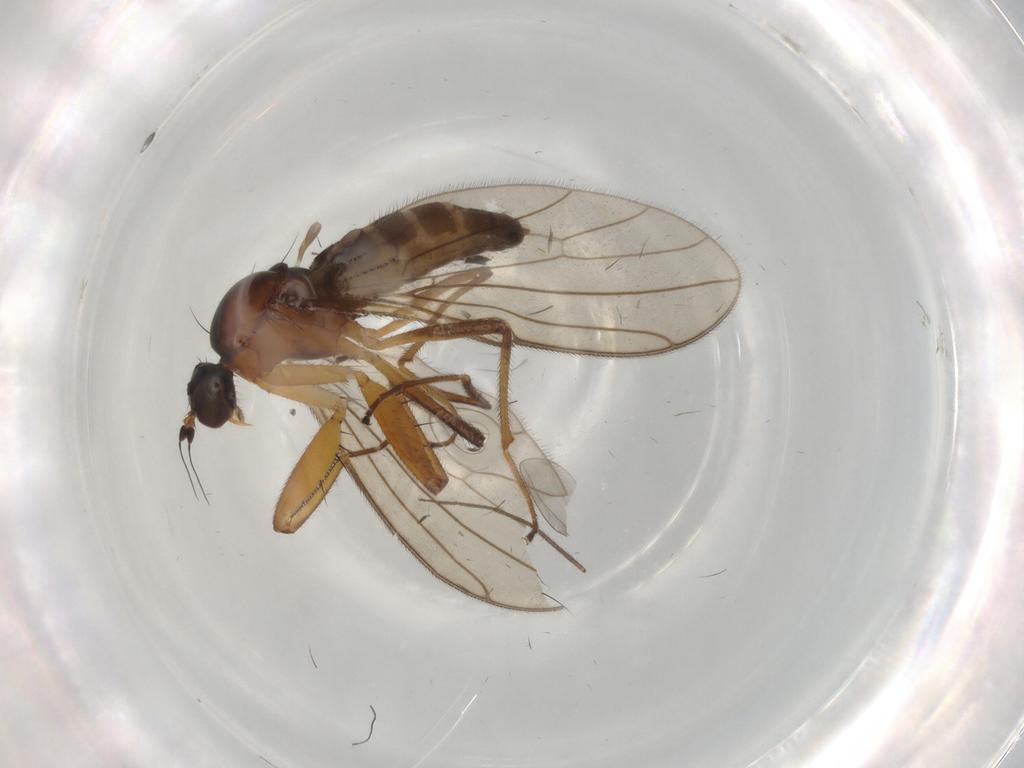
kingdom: Animalia
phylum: Arthropoda
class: Insecta
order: Diptera
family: Empididae
